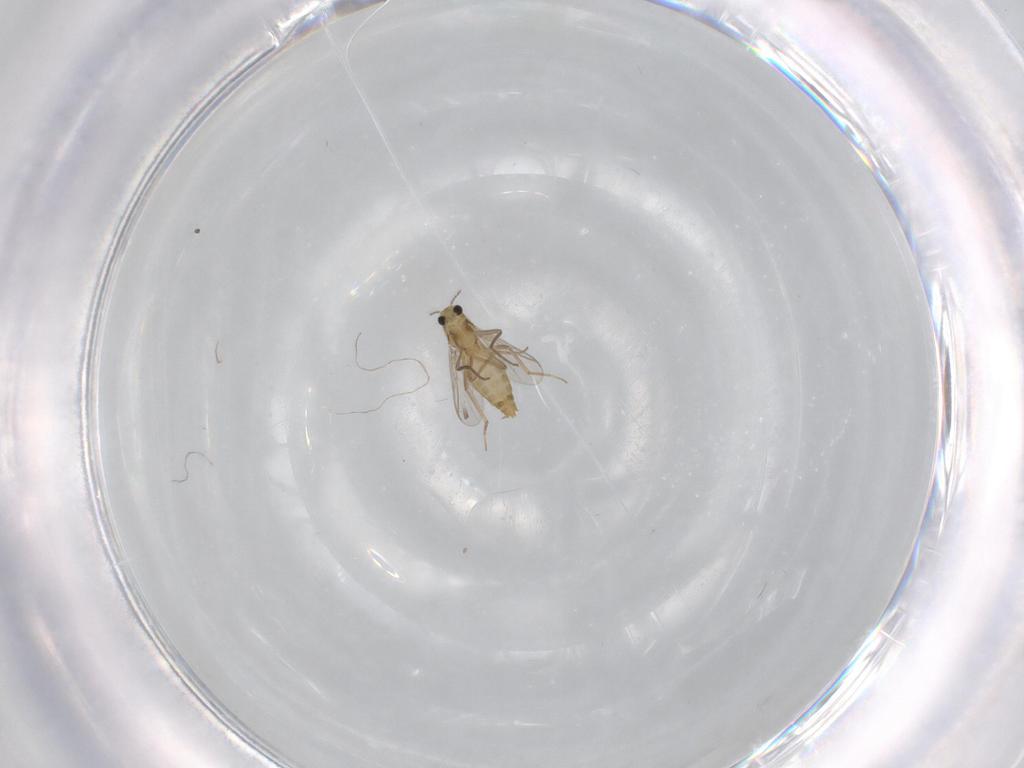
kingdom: Animalia
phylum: Arthropoda
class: Insecta
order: Diptera
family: Chironomidae
